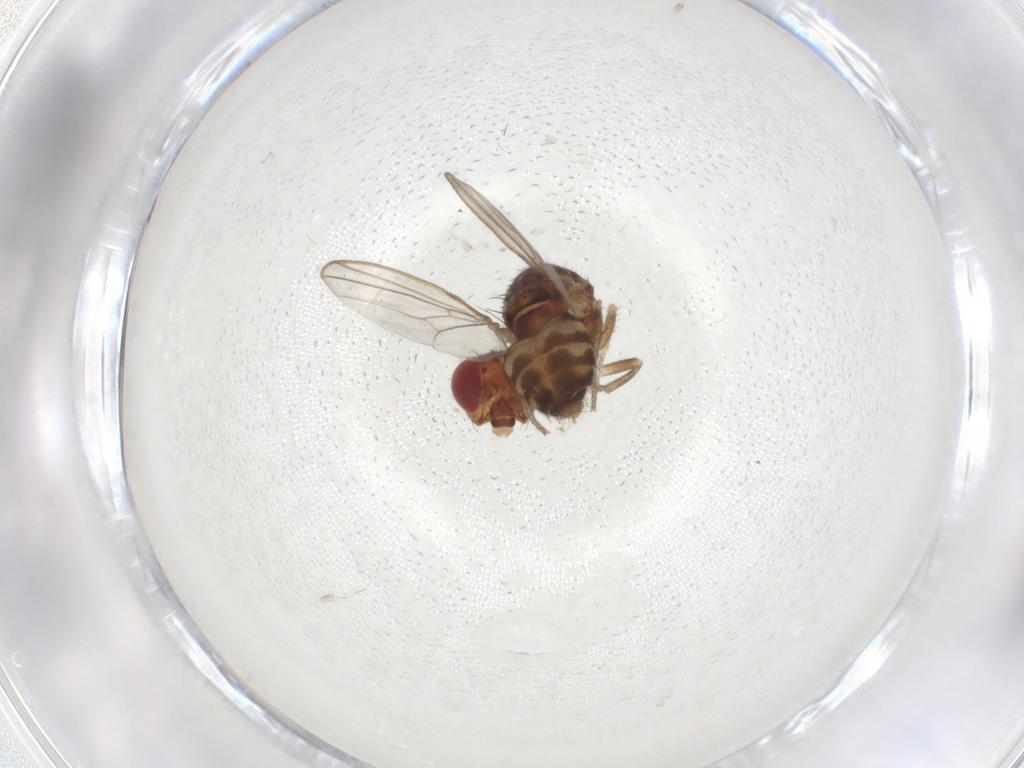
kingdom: Animalia
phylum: Arthropoda
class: Insecta
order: Diptera
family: Drosophilidae
